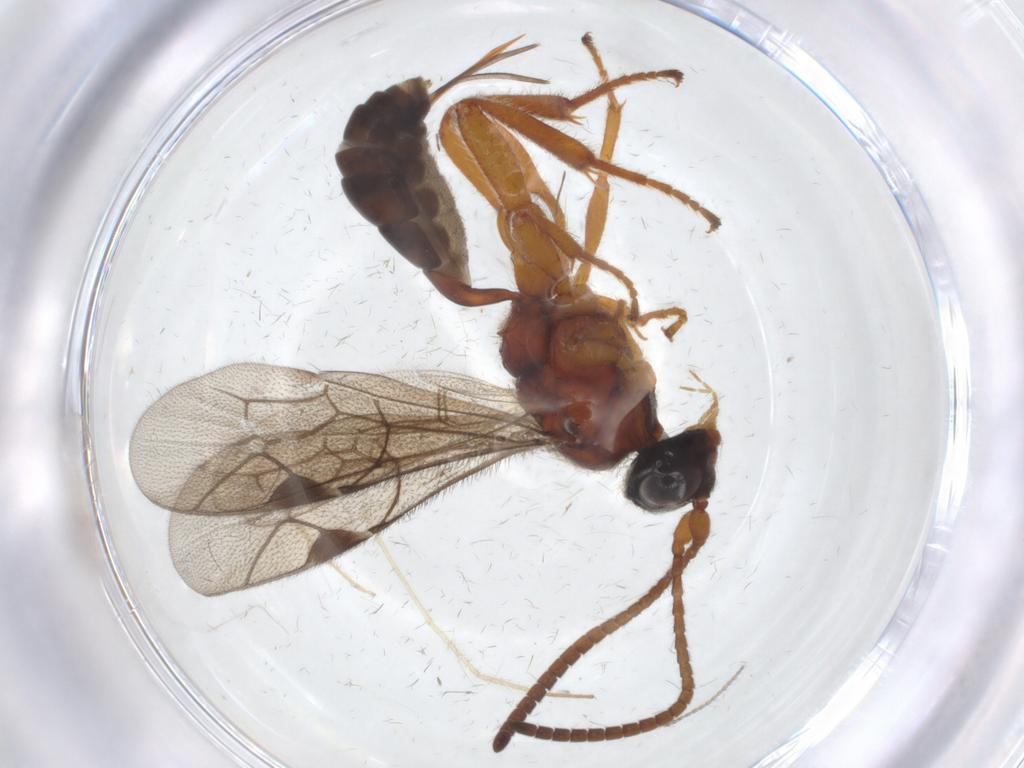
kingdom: Animalia
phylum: Arthropoda
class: Insecta
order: Hymenoptera
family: Ichneumonidae
